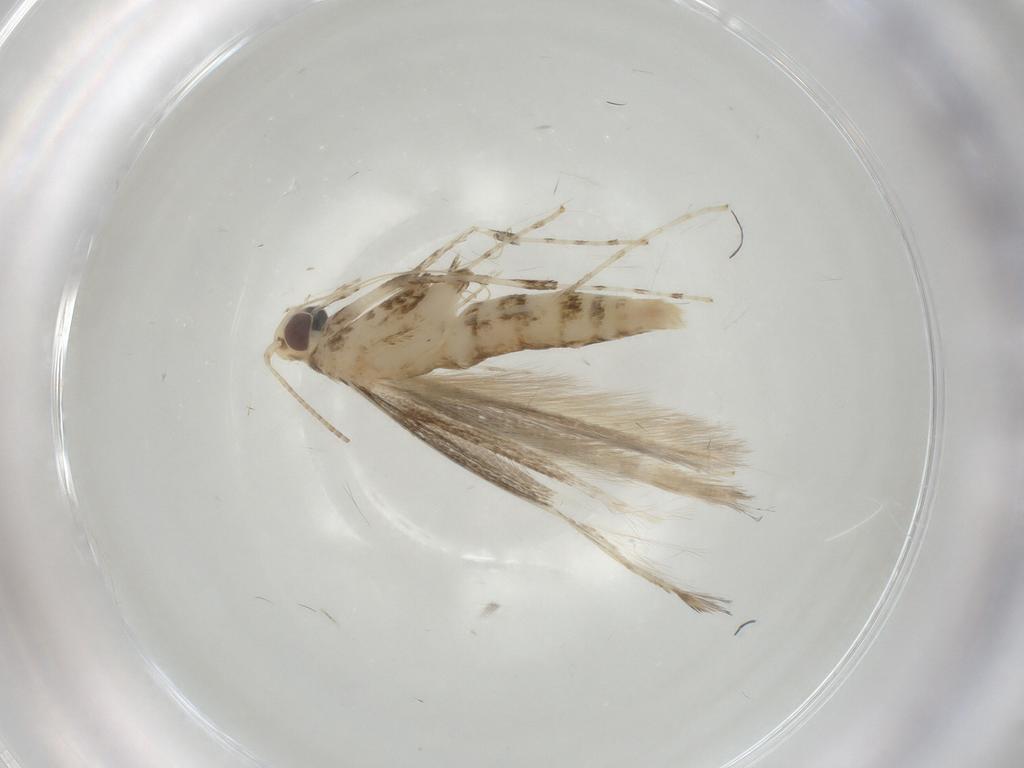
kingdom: Animalia
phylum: Arthropoda
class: Insecta
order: Lepidoptera
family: Gracillariidae
